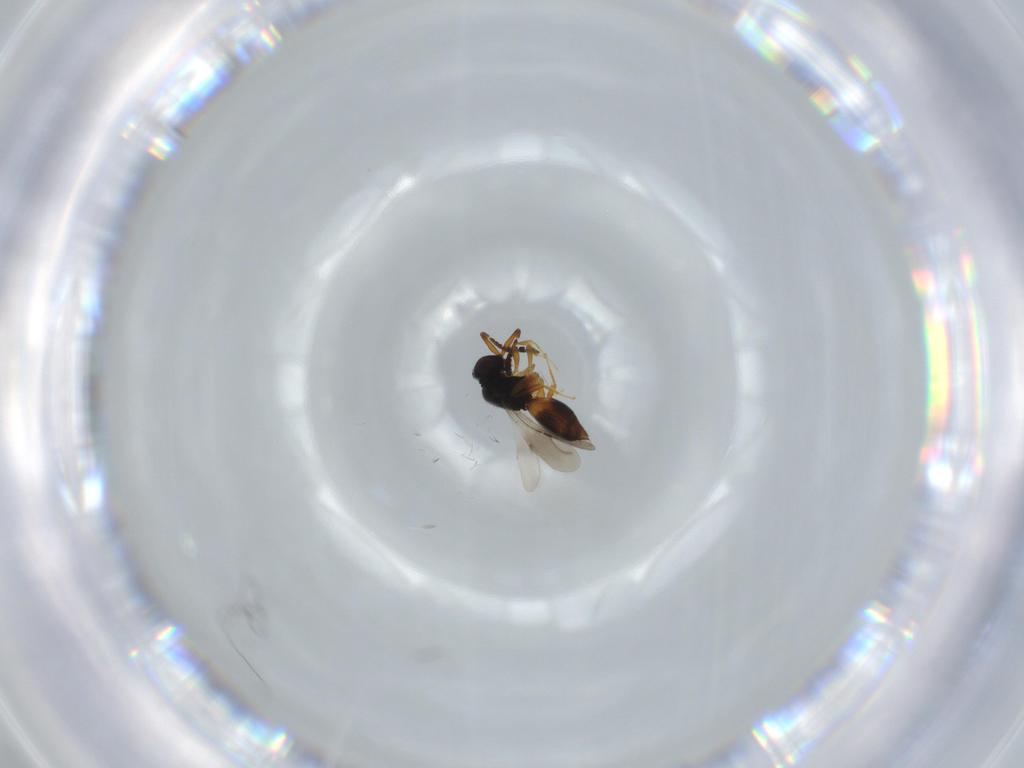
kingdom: Animalia
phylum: Arthropoda
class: Insecta
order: Hymenoptera
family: Scelionidae
